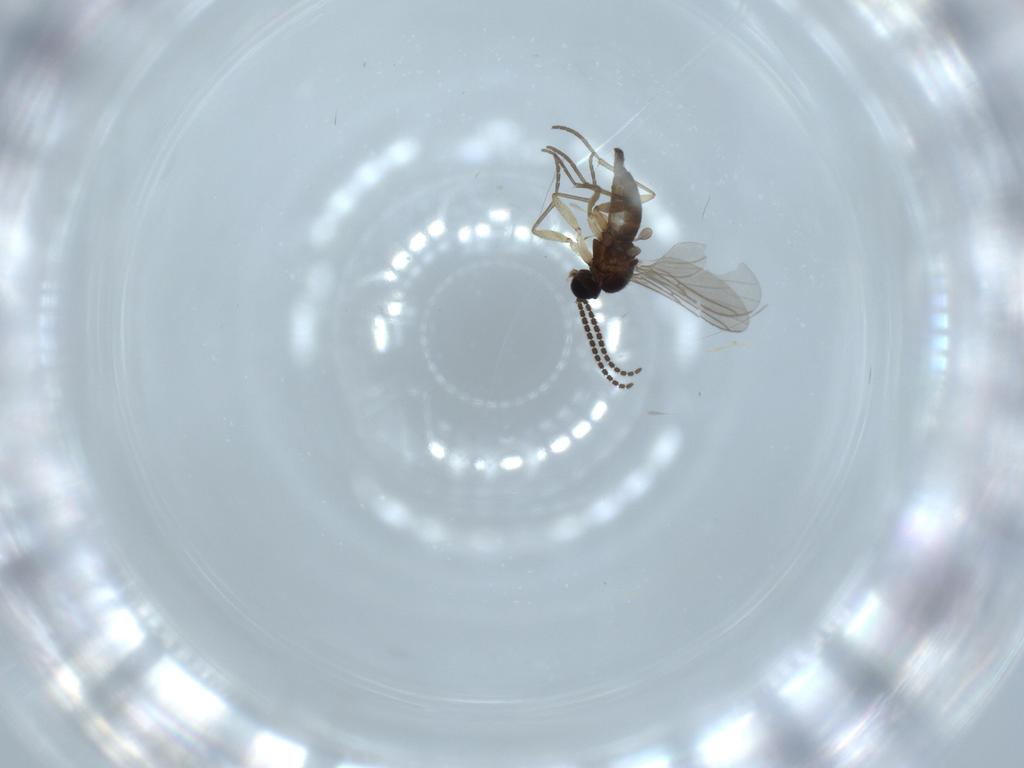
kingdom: Animalia
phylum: Arthropoda
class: Insecta
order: Diptera
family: Sciaridae
